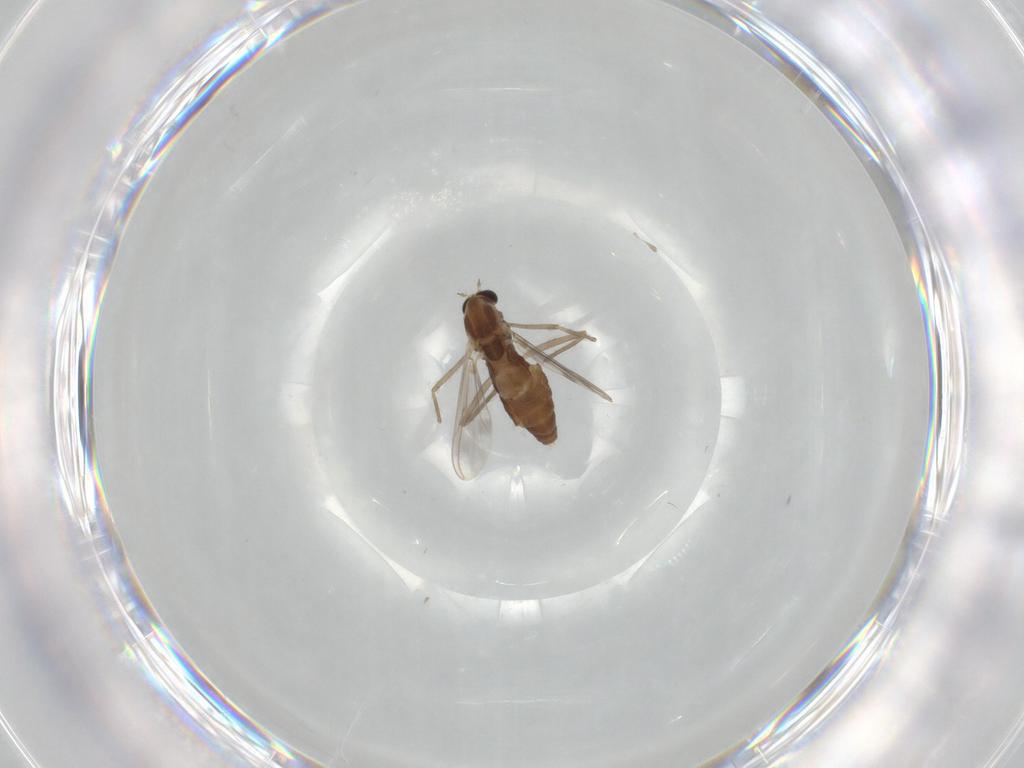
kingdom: Animalia
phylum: Arthropoda
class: Insecta
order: Diptera
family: Chironomidae
